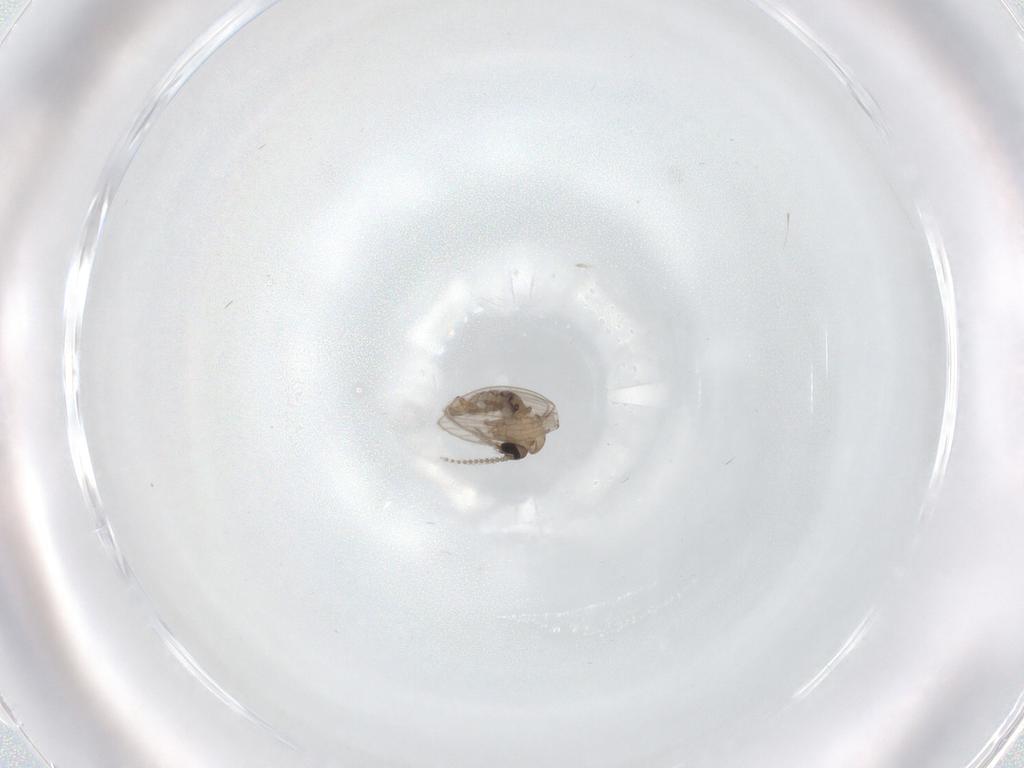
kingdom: Animalia
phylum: Arthropoda
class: Insecta
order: Diptera
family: Psychodidae
